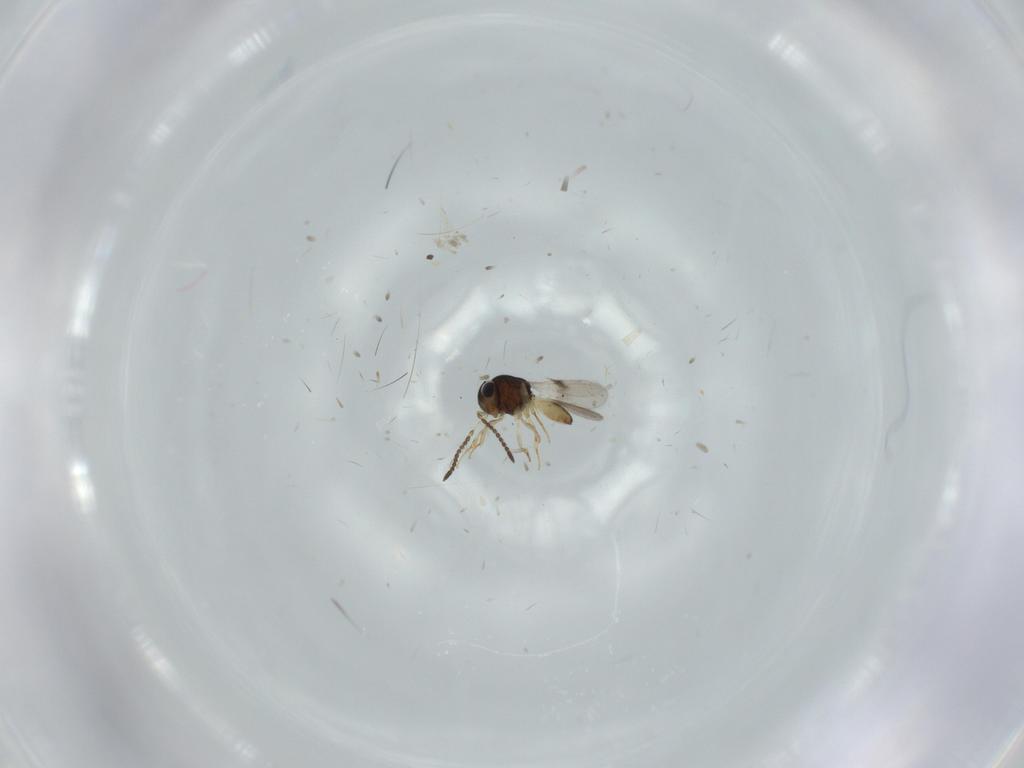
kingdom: Animalia
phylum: Arthropoda
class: Insecta
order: Hymenoptera
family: Scelionidae
